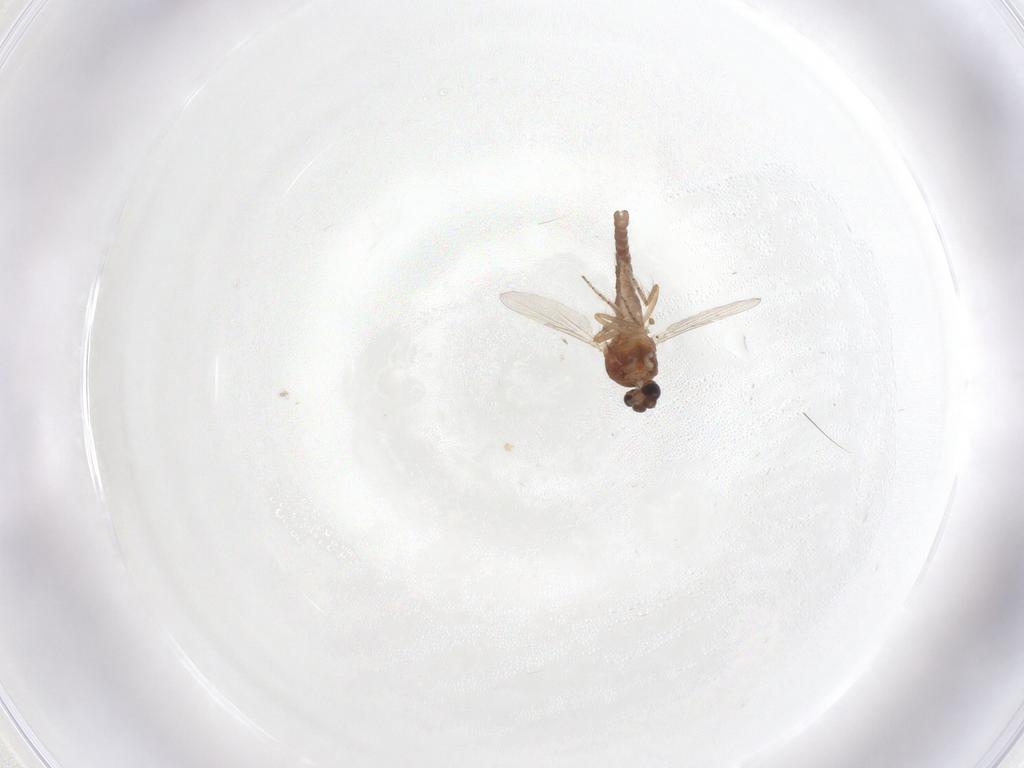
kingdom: Animalia
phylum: Arthropoda
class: Insecta
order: Diptera
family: Ceratopogonidae
